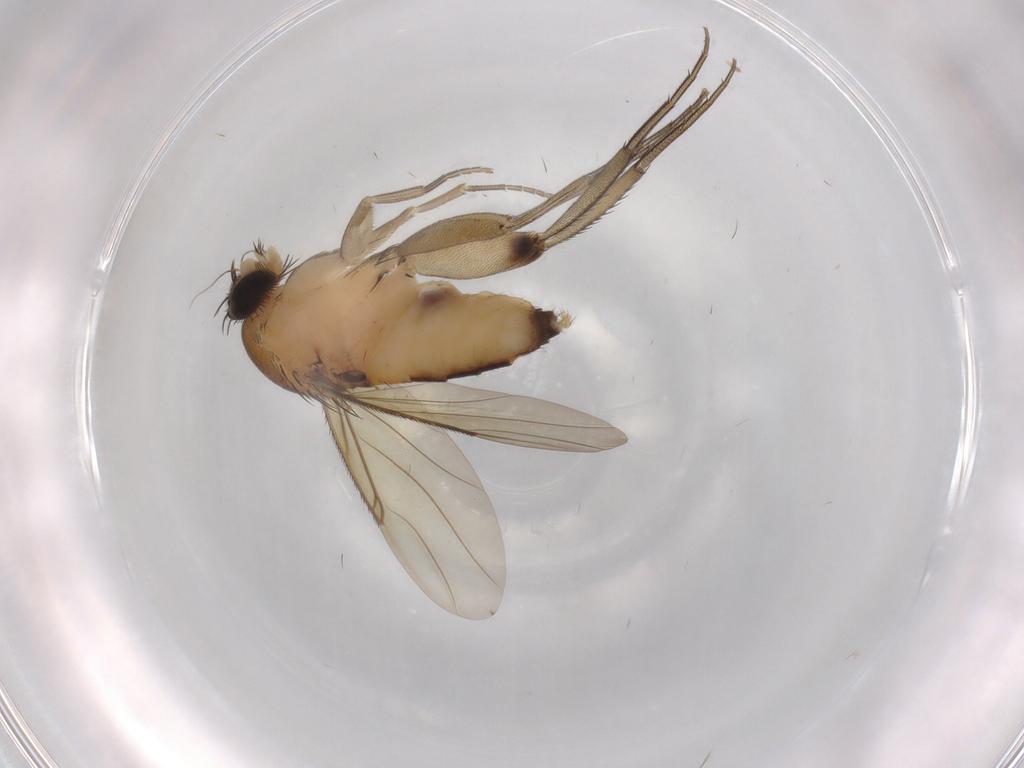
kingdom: Animalia
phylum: Arthropoda
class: Insecta
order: Diptera
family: Phoridae
